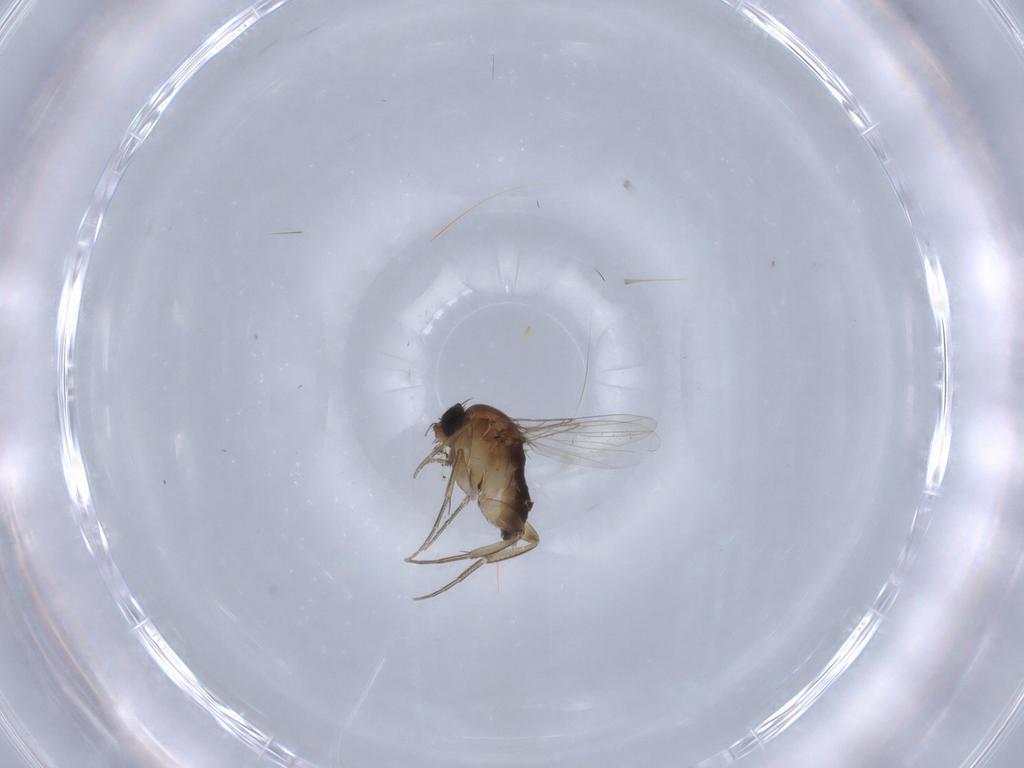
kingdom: Animalia
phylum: Arthropoda
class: Insecta
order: Diptera
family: Phoridae
